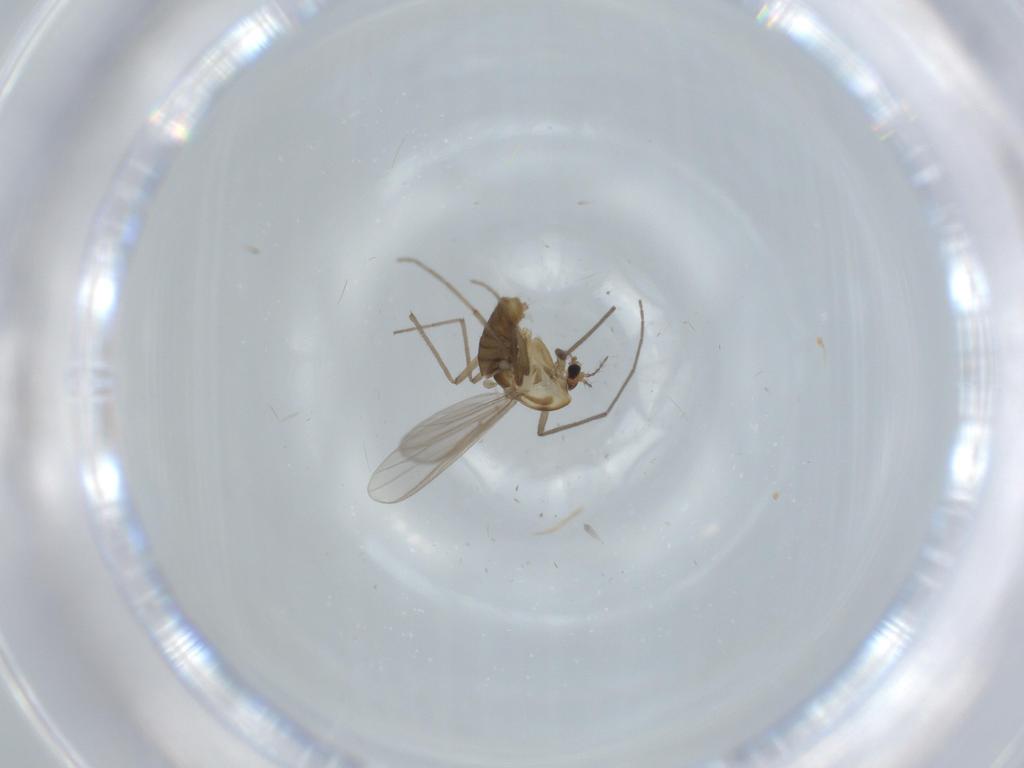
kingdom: Animalia
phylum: Arthropoda
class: Insecta
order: Diptera
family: Chironomidae
